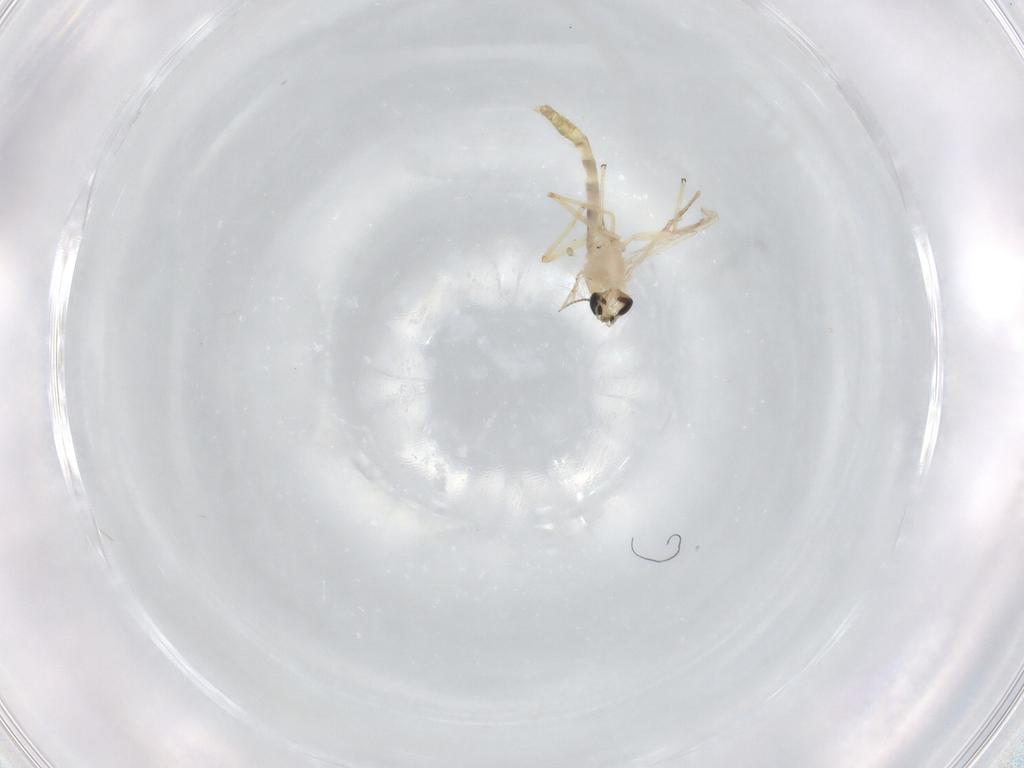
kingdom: Animalia
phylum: Arthropoda
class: Insecta
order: Diptera
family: Chironomidae
